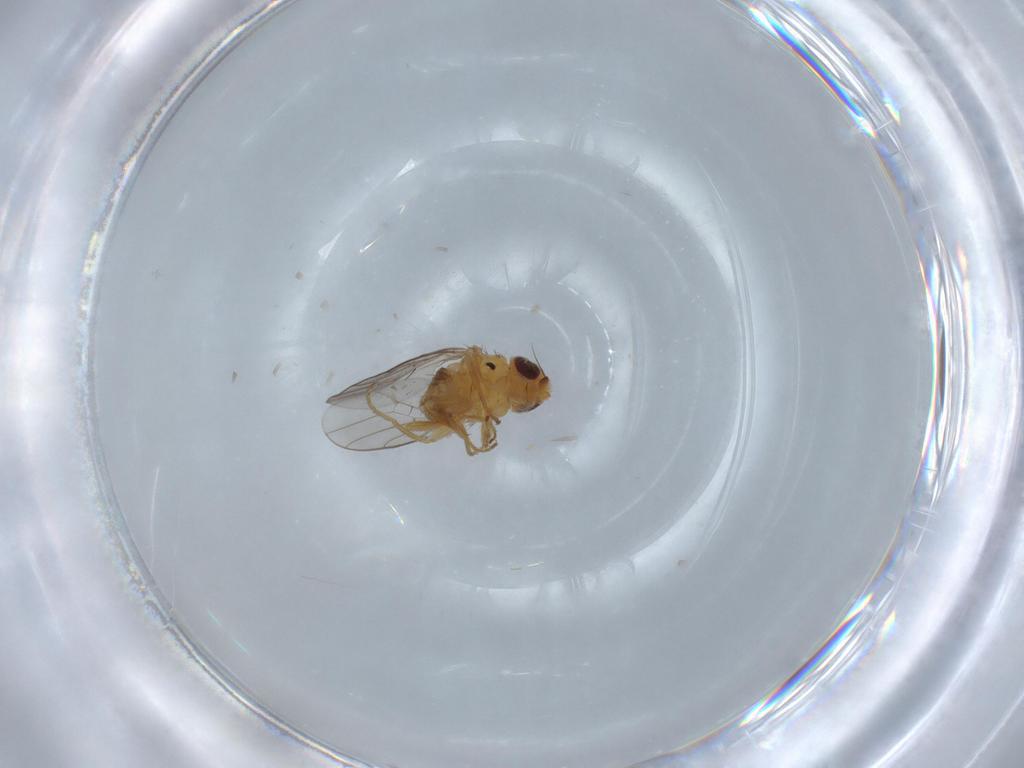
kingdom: Animalia
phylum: Arthropoda
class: Insecta
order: Diptera
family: Chloropidae
